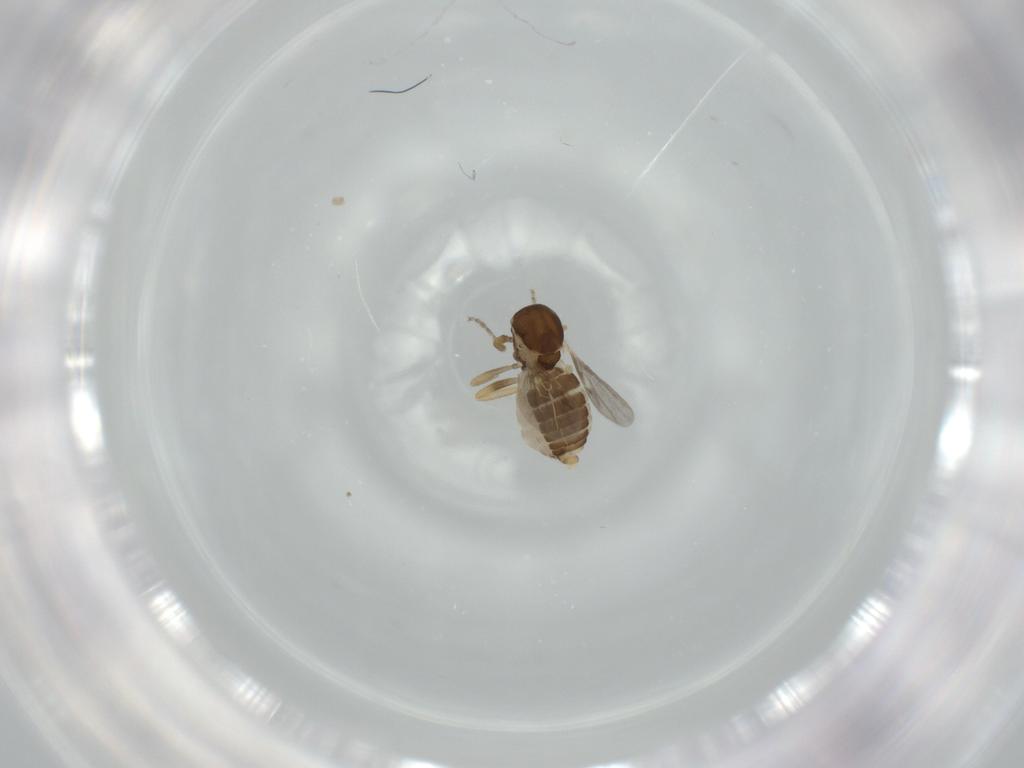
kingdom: Animalia
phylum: Arthropoda
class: Insecta
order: Diptera
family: Ceratopogonidae
